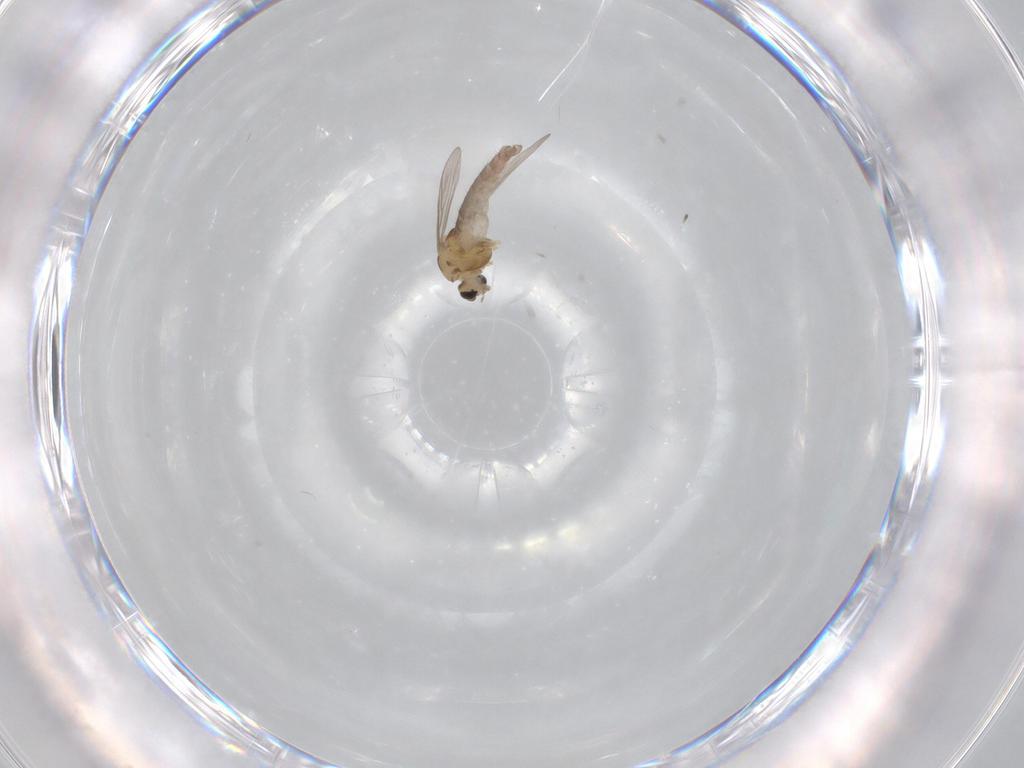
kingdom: Animalia
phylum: Arthropoda
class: Insecta
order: Diptera
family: Chironomidae
